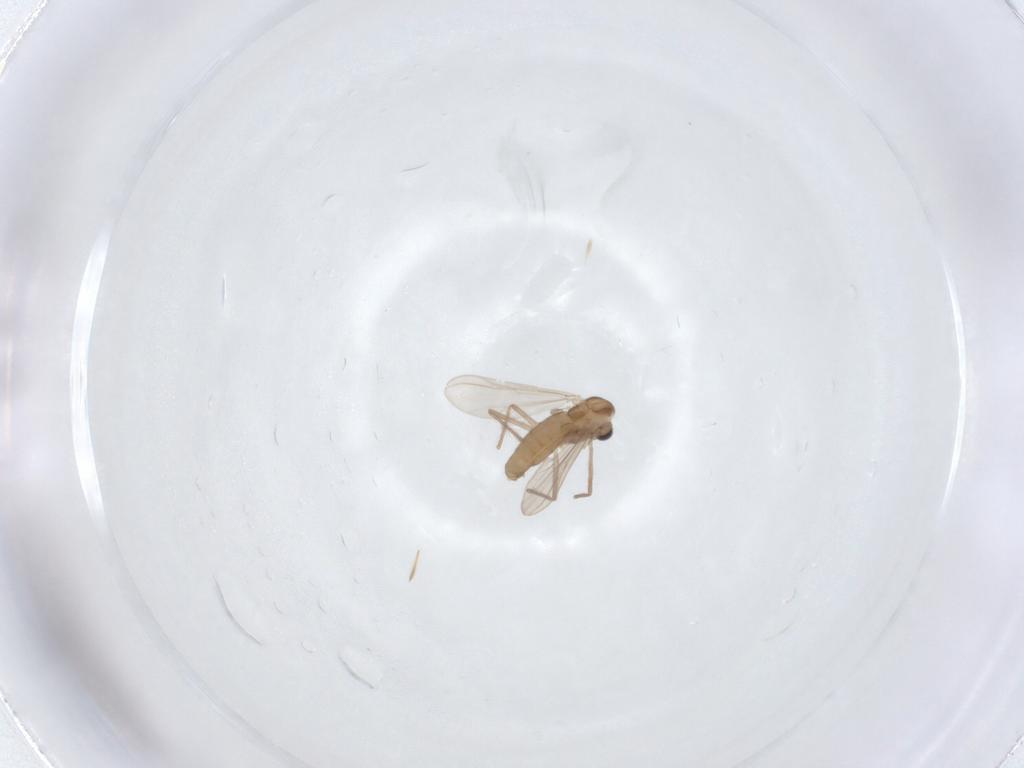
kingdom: Animalia
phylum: Arthropoda
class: Insecta
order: Diptera
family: Chironomidae
